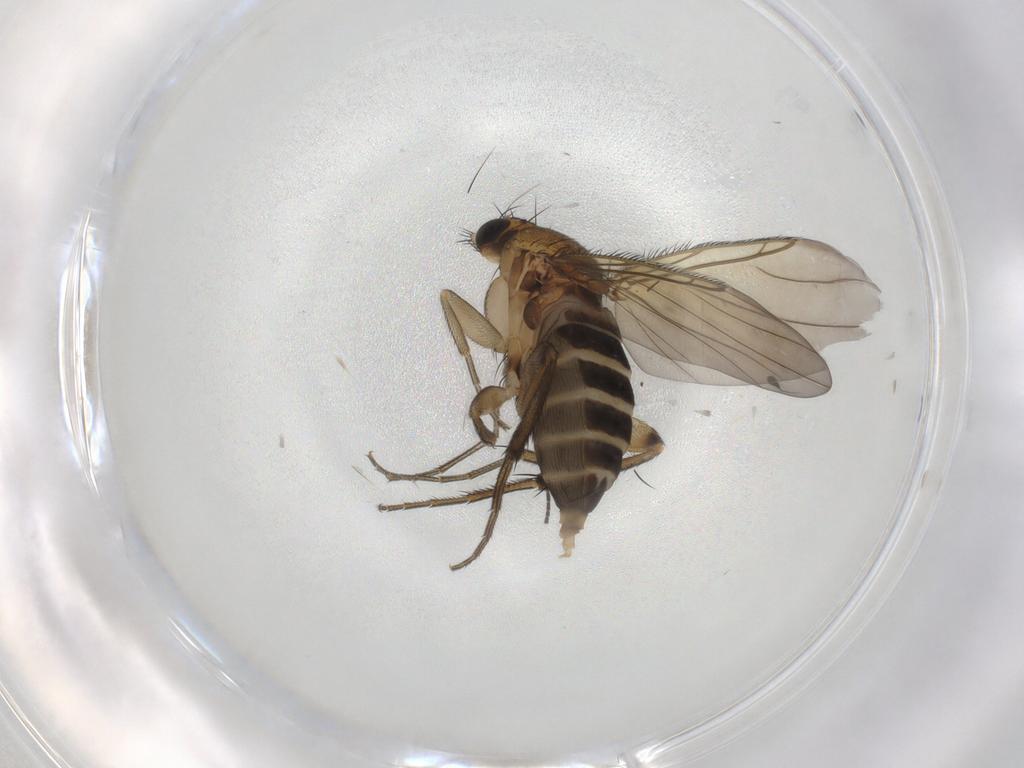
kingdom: Animalia
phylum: Arthropoda
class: Insecta
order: Diptera
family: Phoridae
